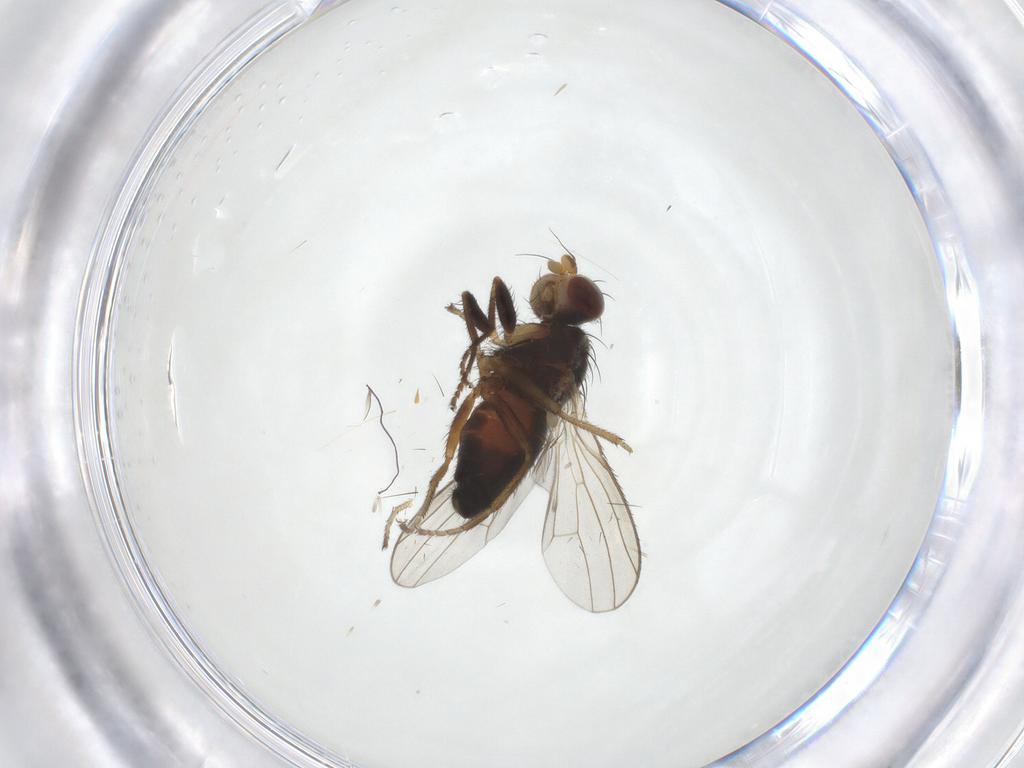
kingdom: Animalia
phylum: Arthropoda
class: Insecta
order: Diptera
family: Heleomyzidae
